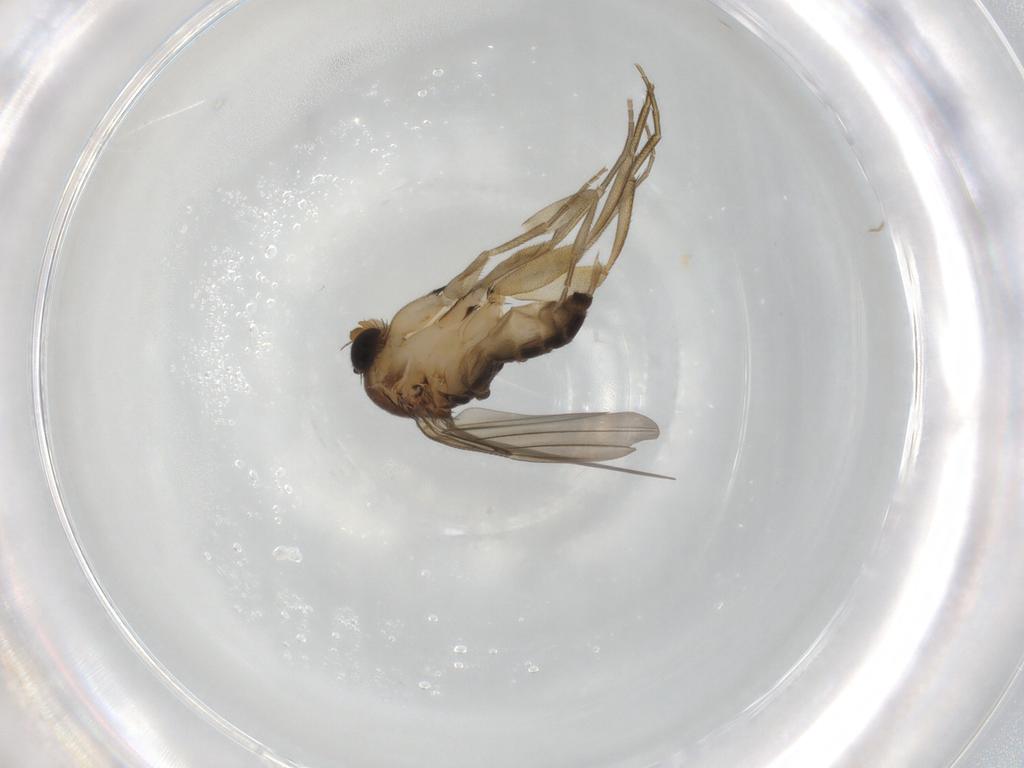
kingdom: Animalia
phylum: Arthropoda
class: Insecta
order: Diptera
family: Phoridae
